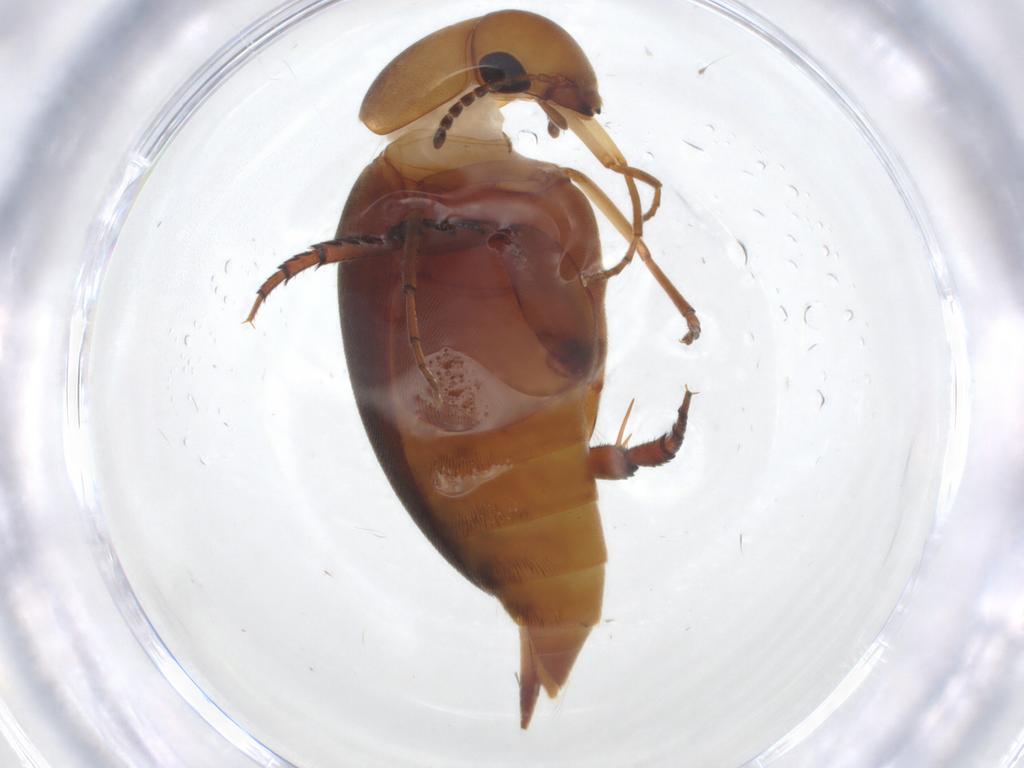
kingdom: Animalia
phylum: Arthropoda
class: Insecta
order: Coleoptera
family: Mordellidae
